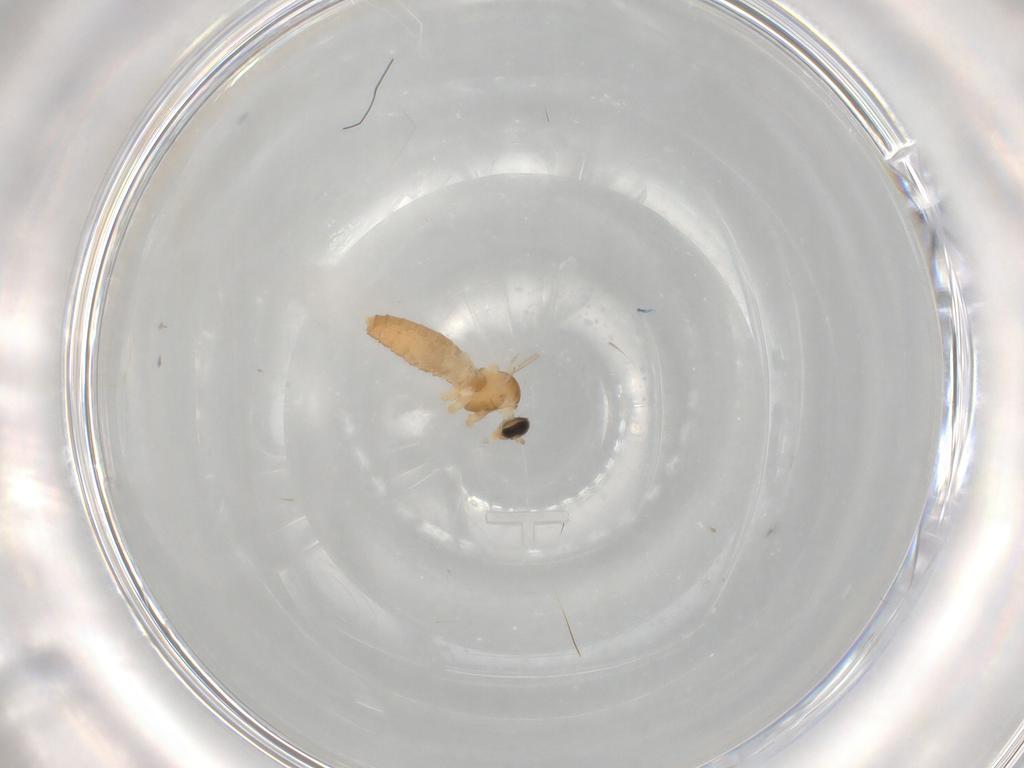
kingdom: Animalia
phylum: Arthropoda
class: Insecta
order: Diptera
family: Cecidomyiidae
